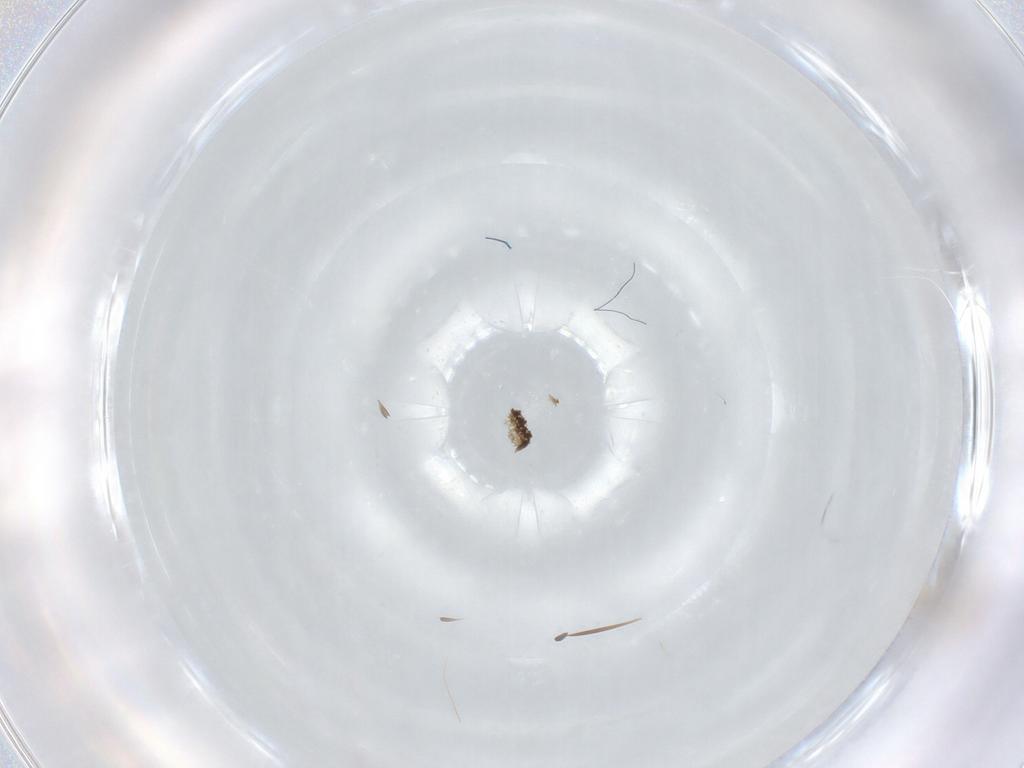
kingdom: Animalia
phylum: Arthropoda
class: Insecta
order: Diptera
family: Cecidomyiidae
